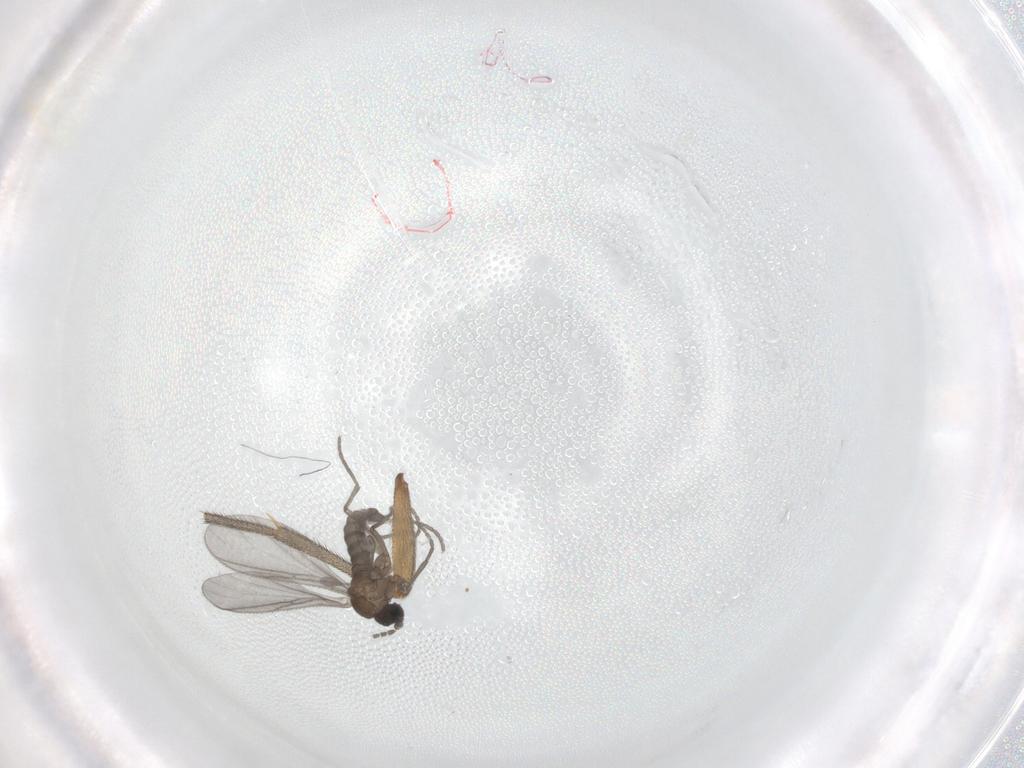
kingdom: Animalia
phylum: Arthropoda
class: Insecta
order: Diptera
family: Sciaridae
